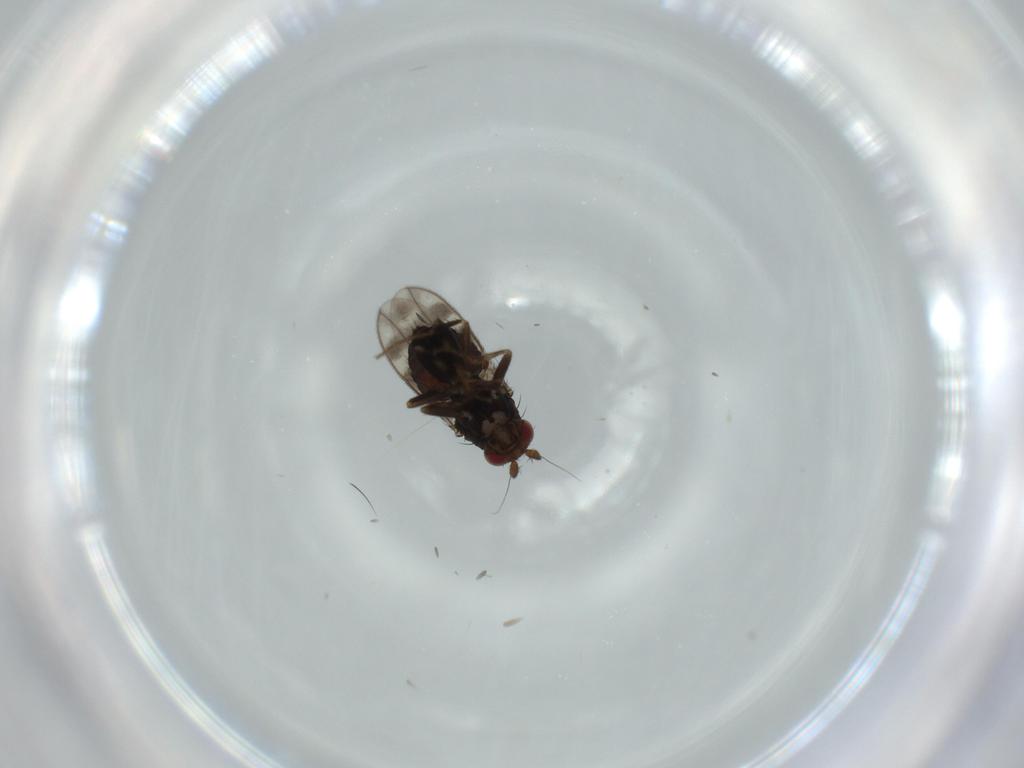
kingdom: Animalia
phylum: Arthropoda
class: Insecta
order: Diptera
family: Sphaeroceridae
